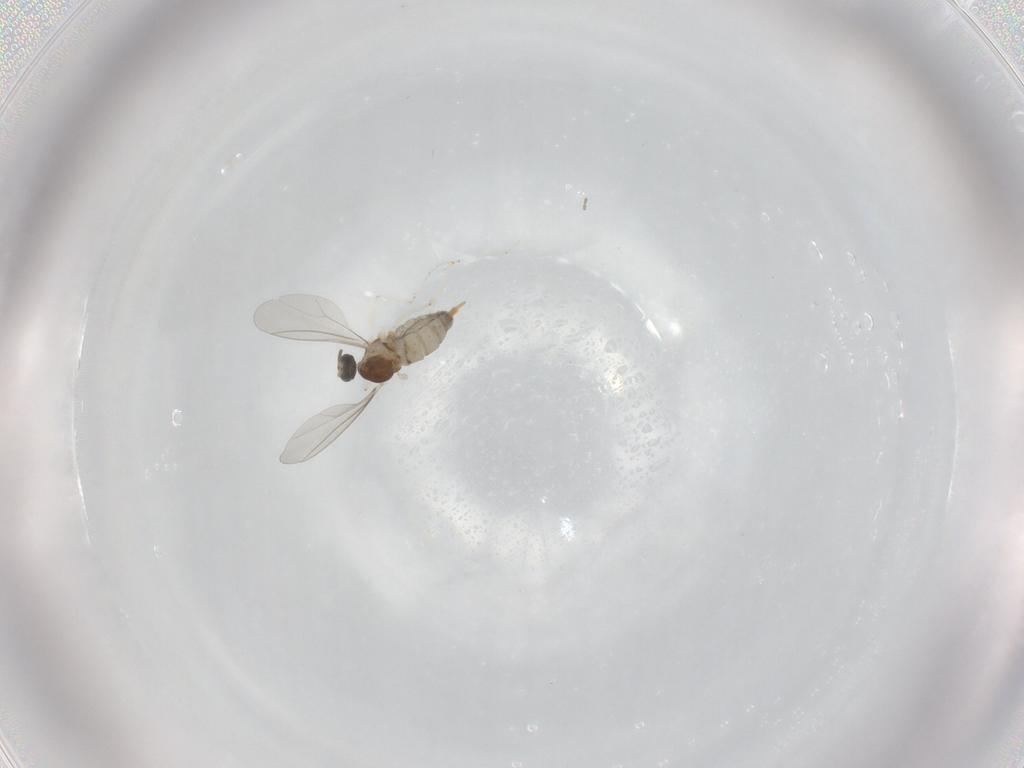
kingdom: Animalia
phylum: Arthropoda
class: Insecta
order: Diptera
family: Cecidomyiidae
